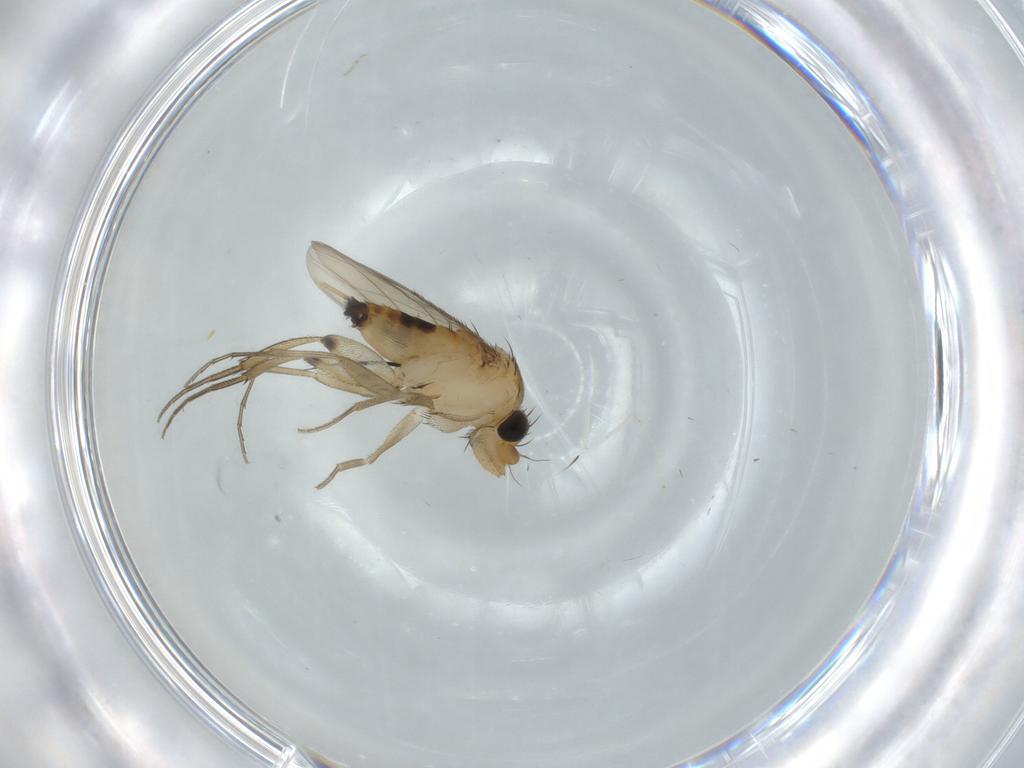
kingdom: Animalia
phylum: Arthropoda
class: Insecta
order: Diptera
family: Phoridae
